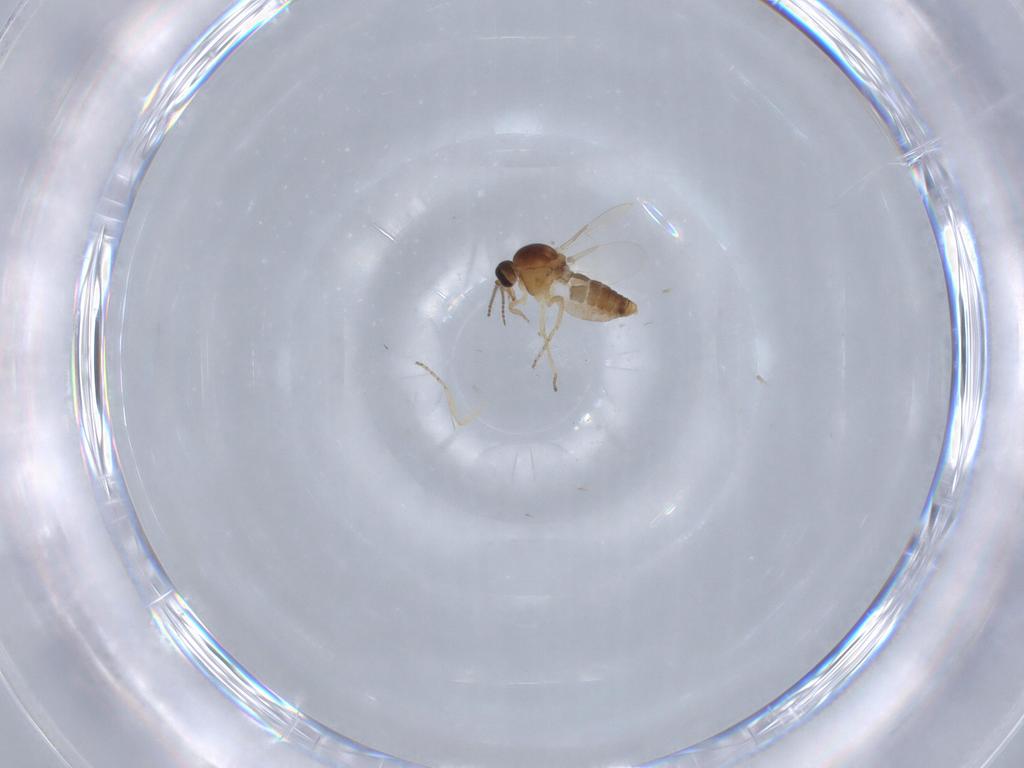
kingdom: Animalia
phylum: Arthropoda
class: Insecta
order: Diptera
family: Ceratopogonidae
